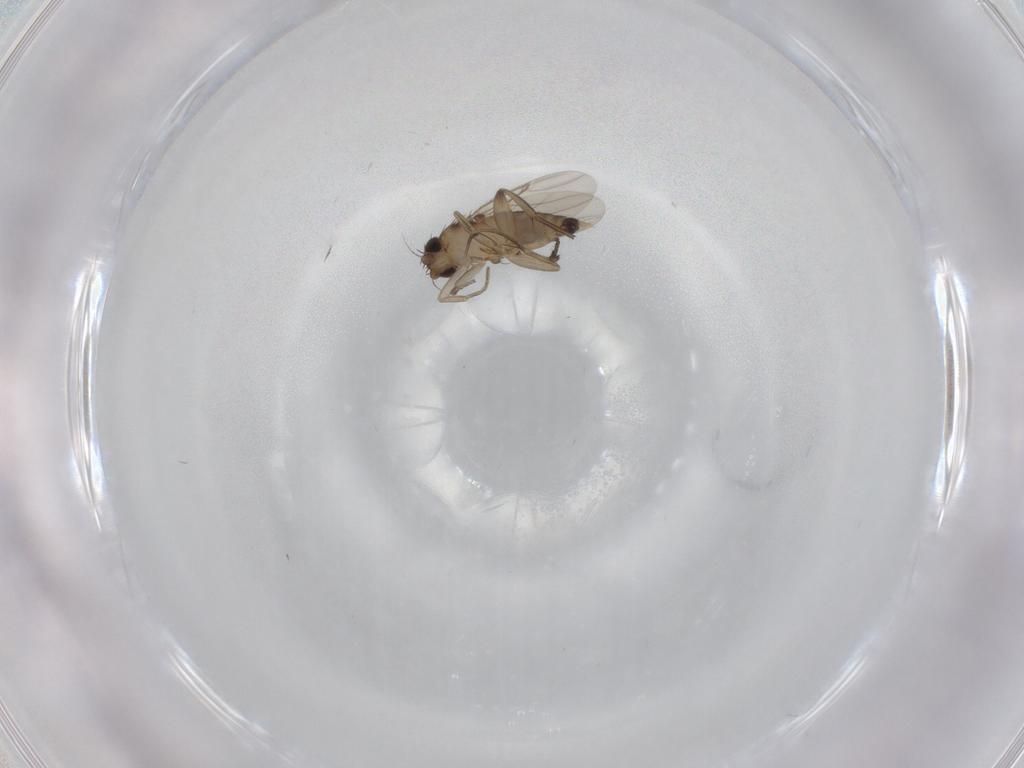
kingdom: Animalia
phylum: Arthropoda
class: Insecta
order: Diptera
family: Phoridae
